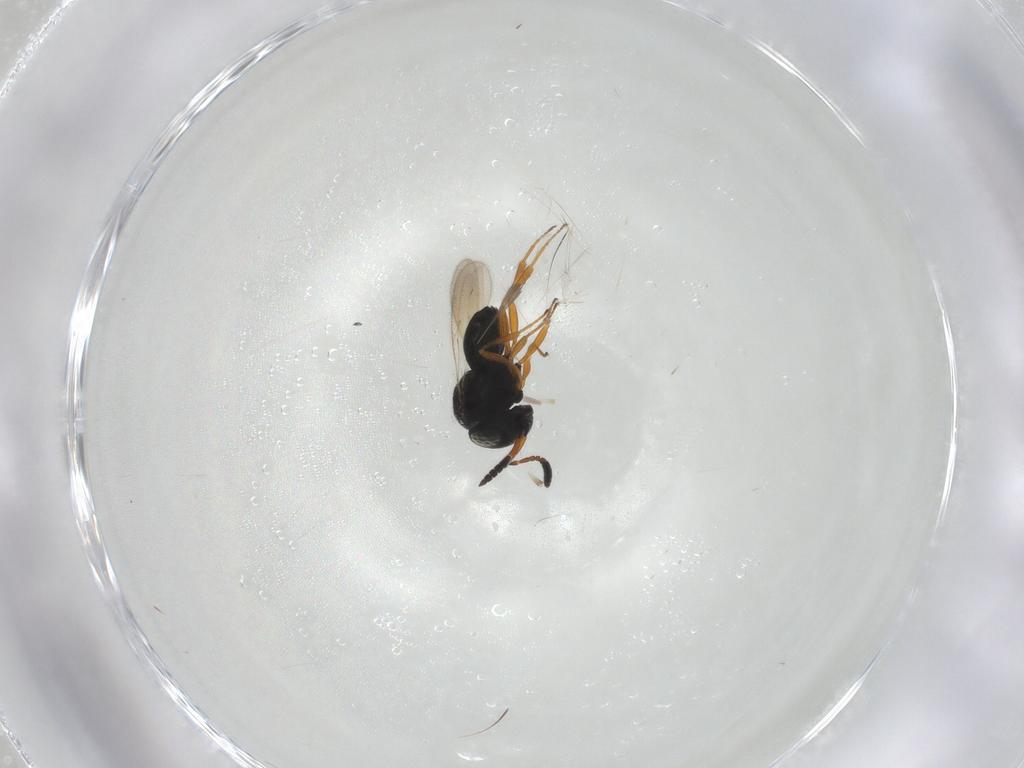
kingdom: Animalia
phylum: Arthropoda
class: Insecta
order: Hymenoptera
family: Scelionidae
